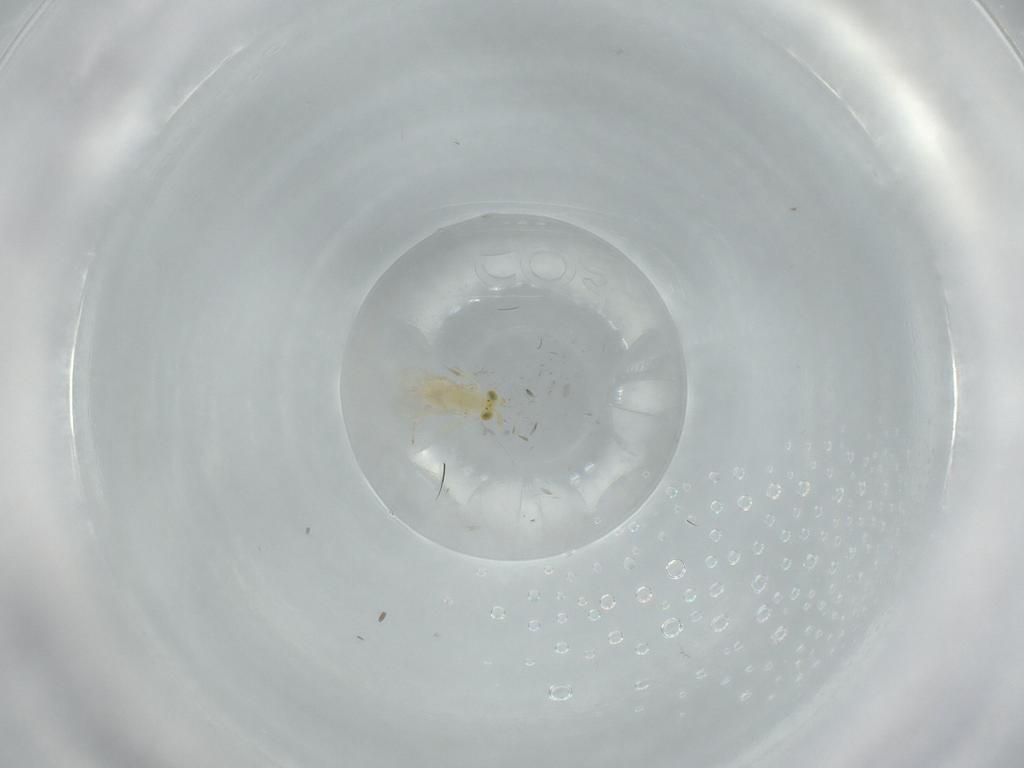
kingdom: Animalia
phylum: Arthropoda
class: Insecta
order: Hymenoptera
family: Aphelinidae
